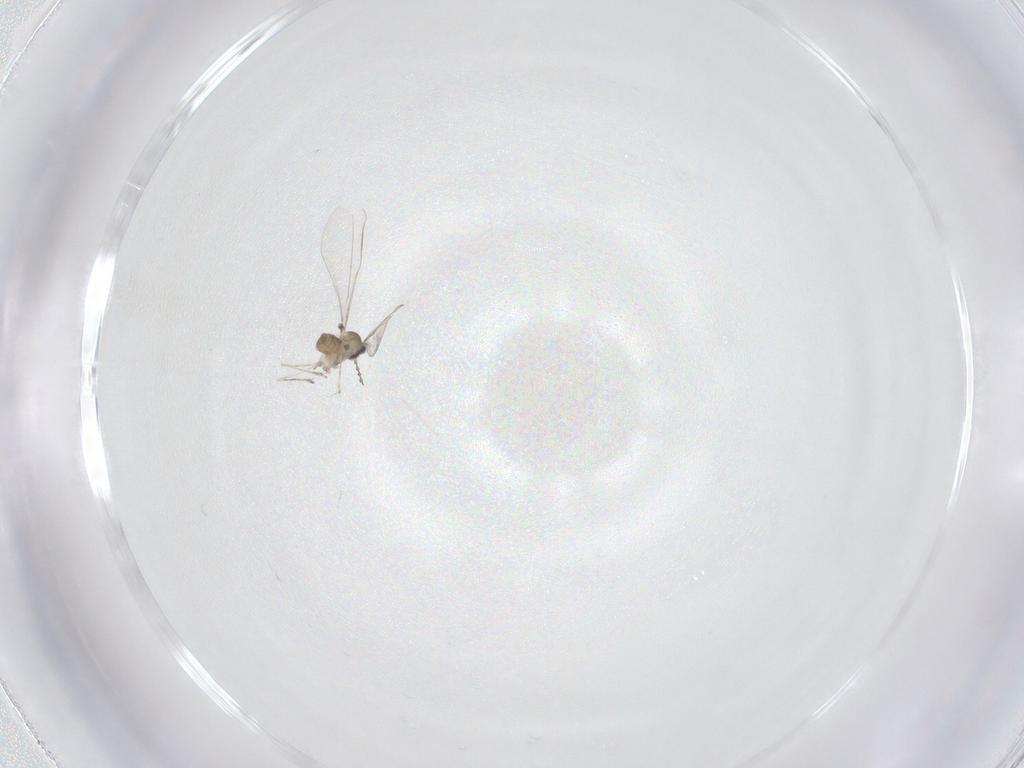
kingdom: Animalia
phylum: Arthropoda
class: Insecta
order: Diptera
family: Cecidomyiidae
